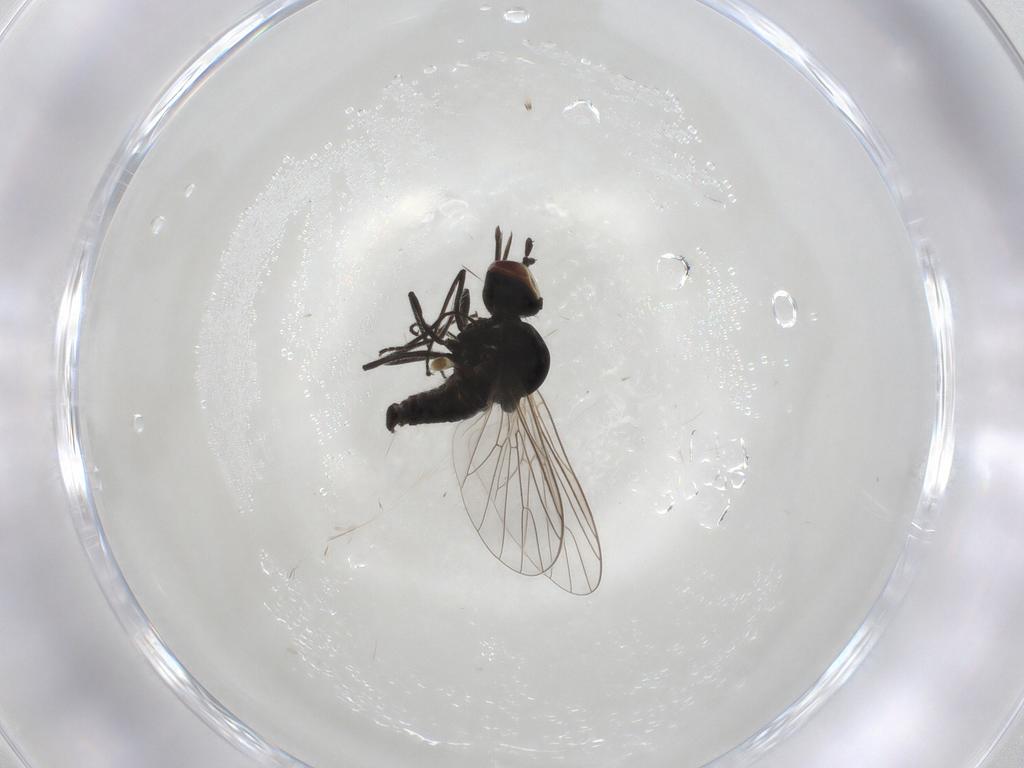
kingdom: Animalia
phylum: Arthropoda
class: Insecta
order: Diptera
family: Bombyliidae
